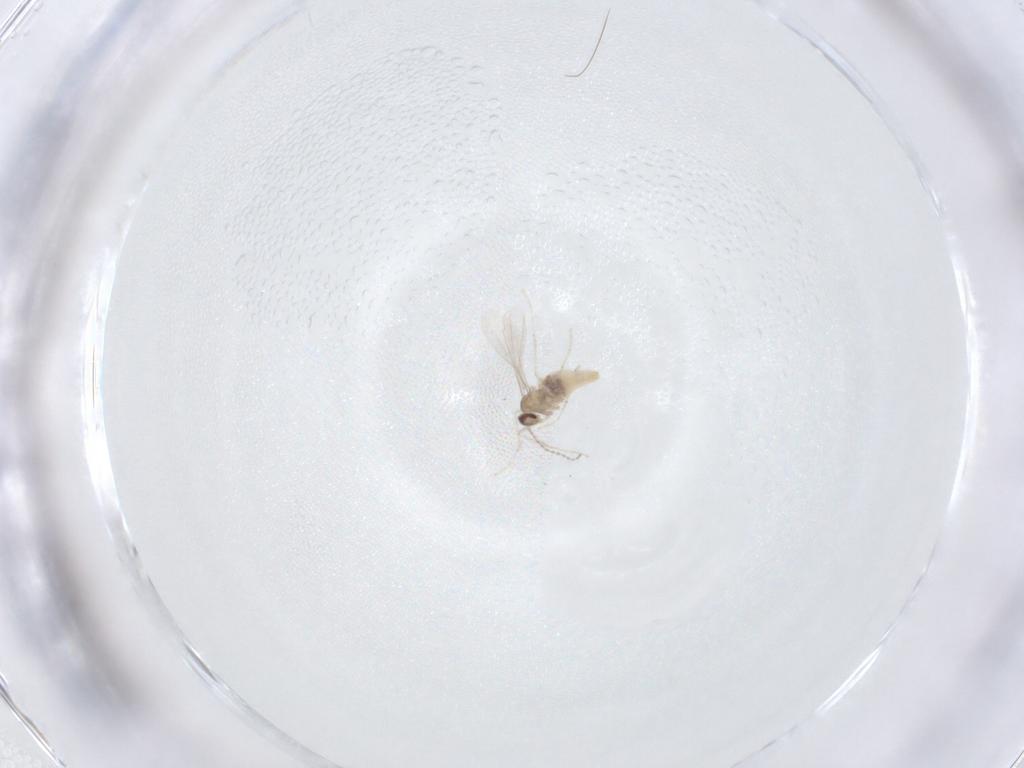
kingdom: Animalia
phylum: Arthropoda
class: Insecta
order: Diptera
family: Cecidomyiidae
